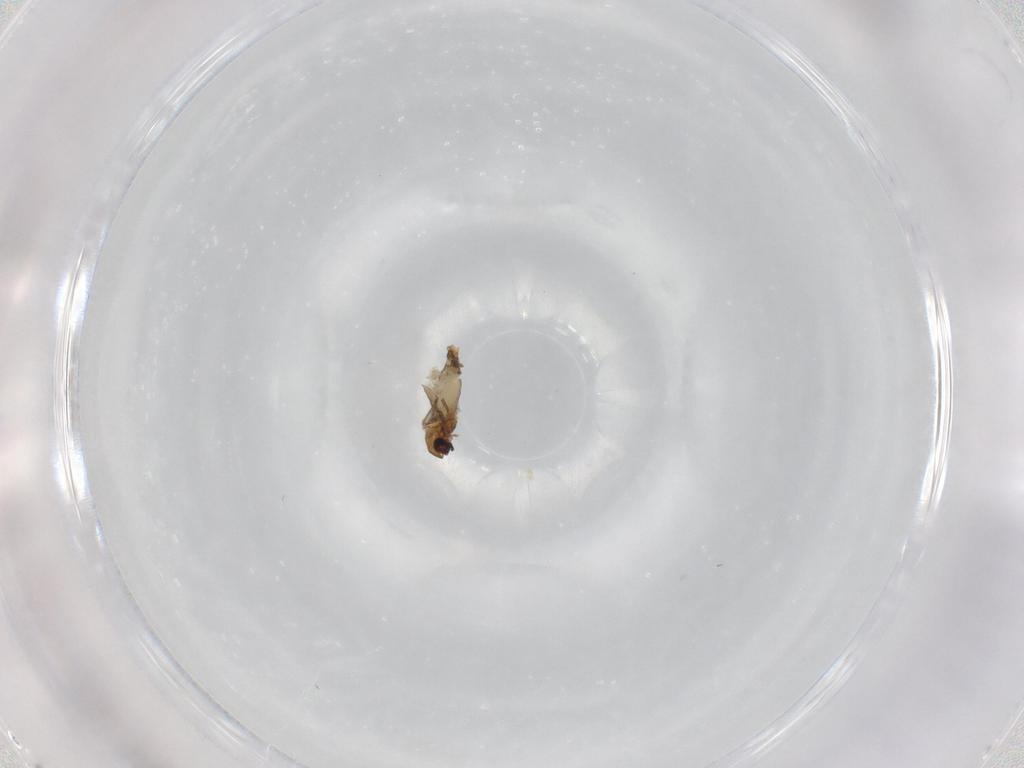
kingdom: Animalia
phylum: Arthropoda
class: Insecta
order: Diptera
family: Chironomidae
